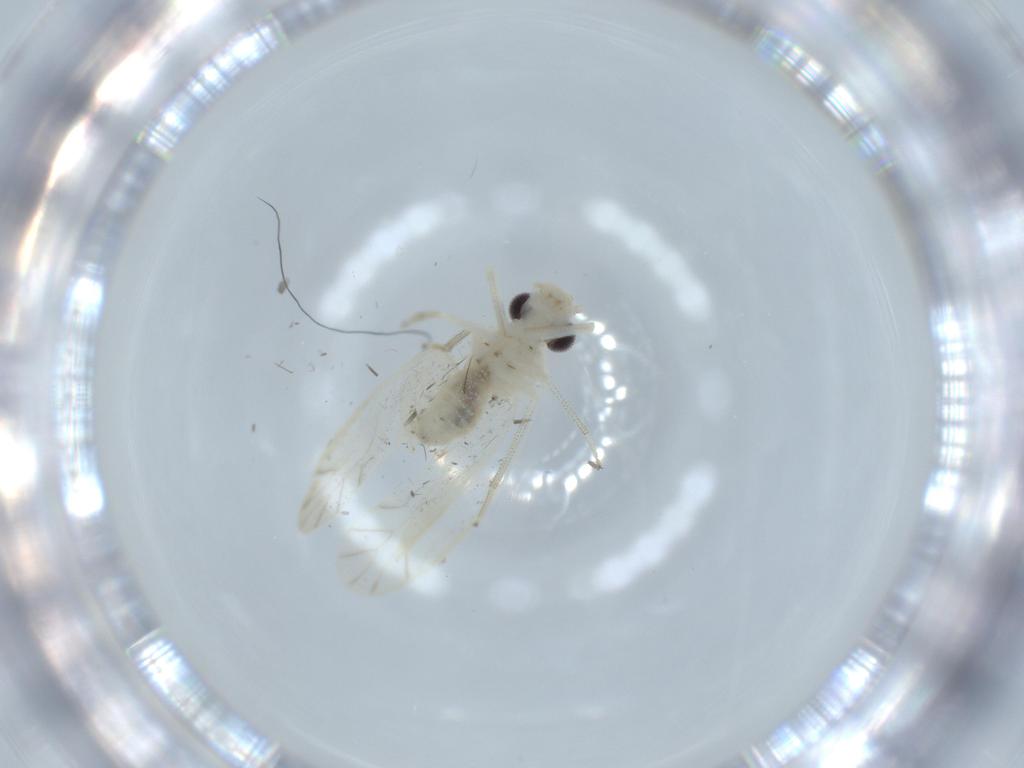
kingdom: Animalia
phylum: Arthropoda
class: Insecta
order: Psocodea
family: Caeciliusidae
